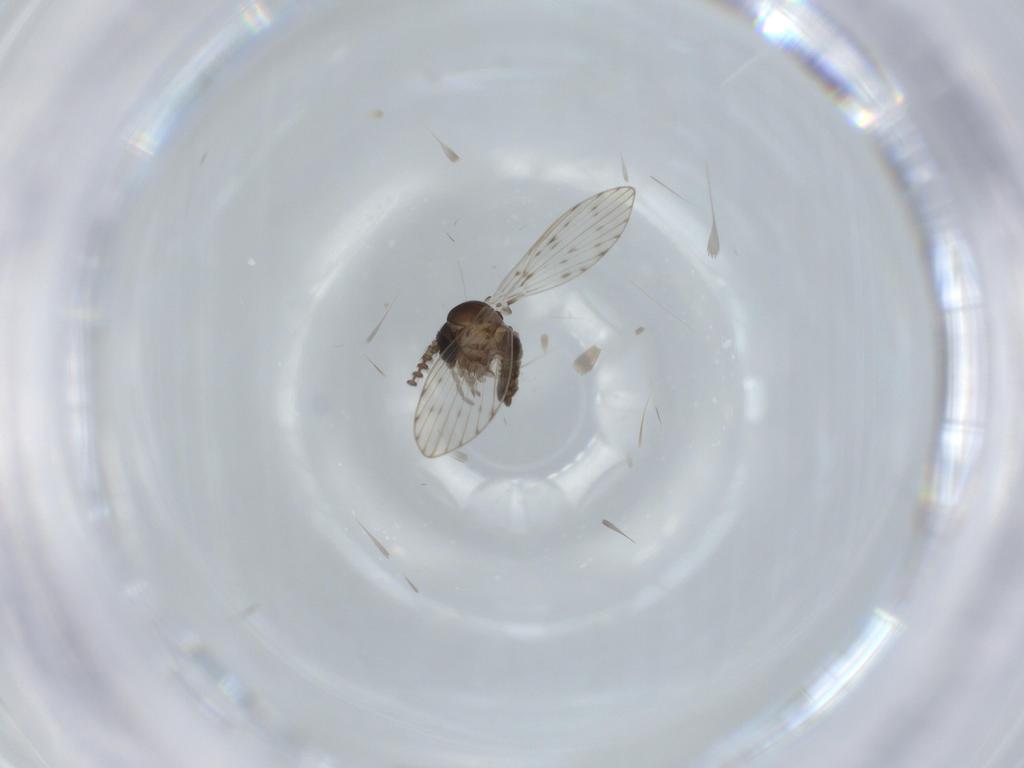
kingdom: Animalia
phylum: Arthropoda
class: Insecta
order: Diptera
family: Psychodidae
